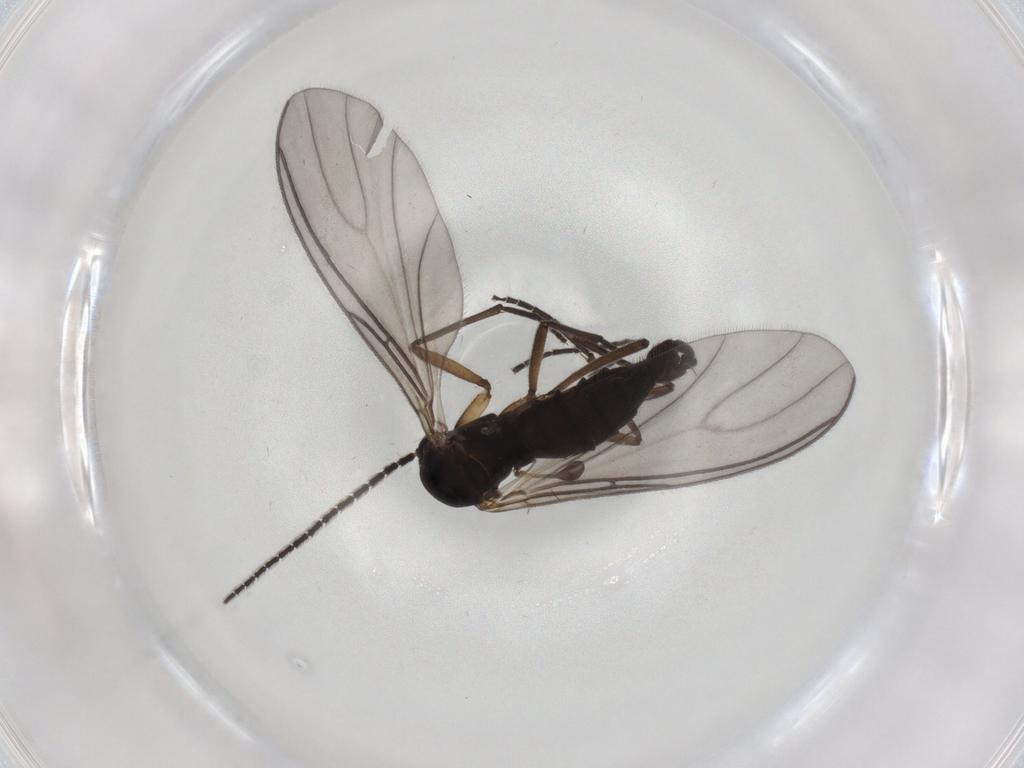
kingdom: Animalia
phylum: Arthropoda
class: Insecta
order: Diptera
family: Sciaridae
